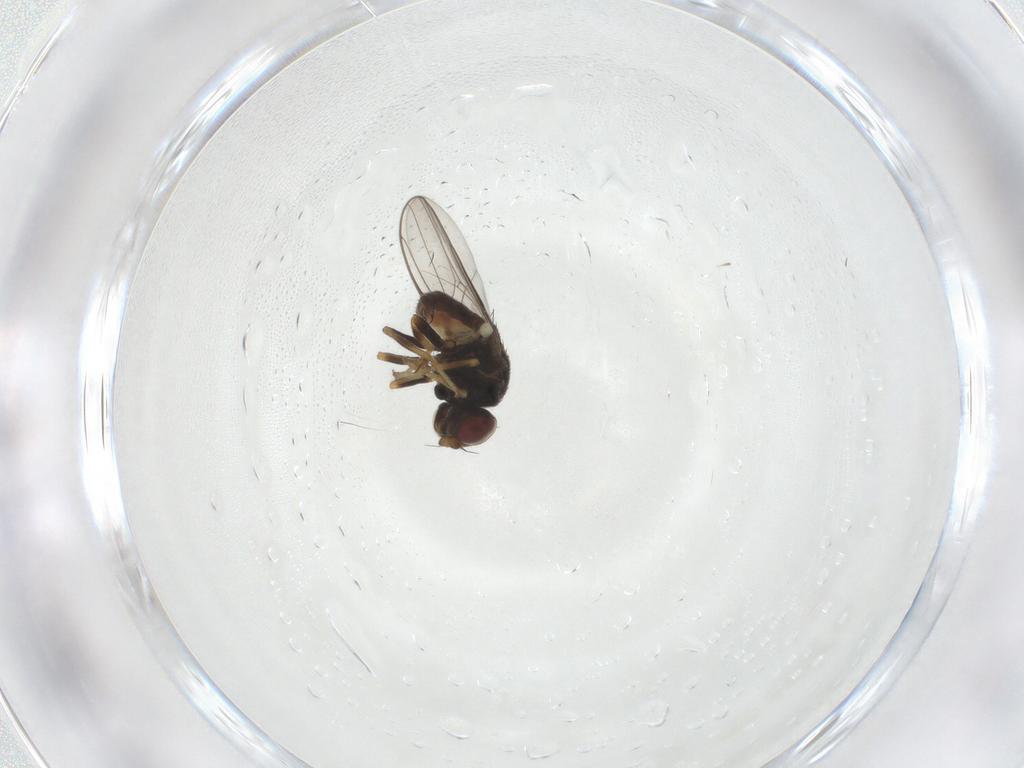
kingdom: Animalia
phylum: Arthropoda
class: Insecta
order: Diptera
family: Chloropidae
